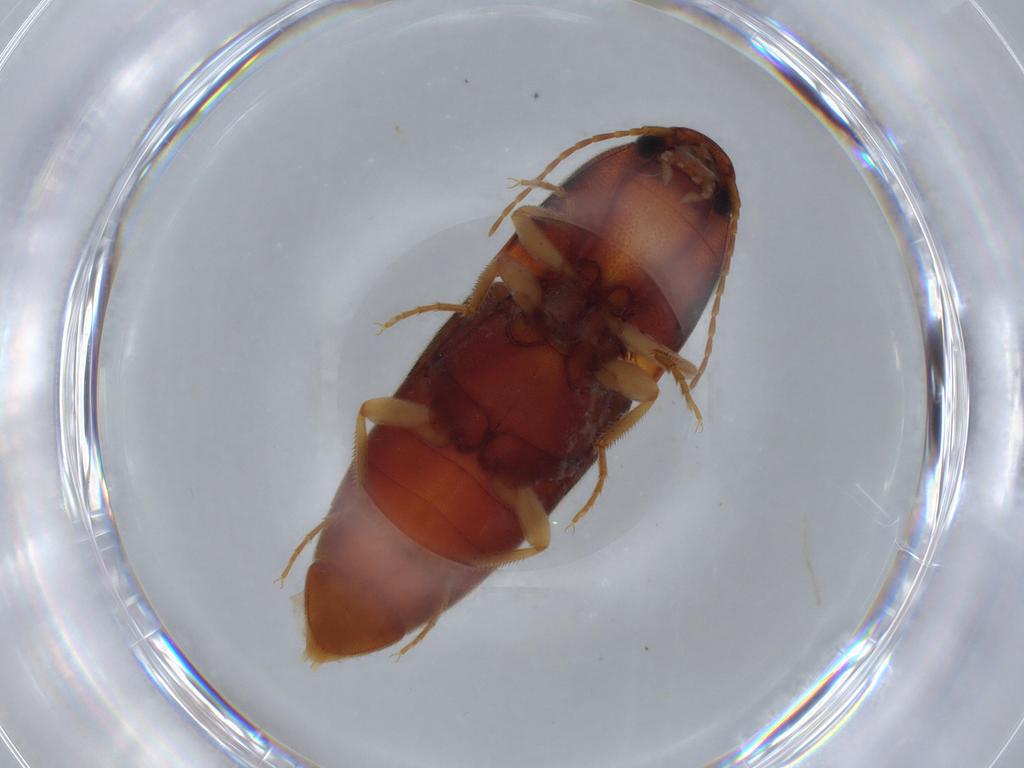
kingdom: Animalia
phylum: Arthropoda
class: Insecta
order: Coleoptera
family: Elateridae
